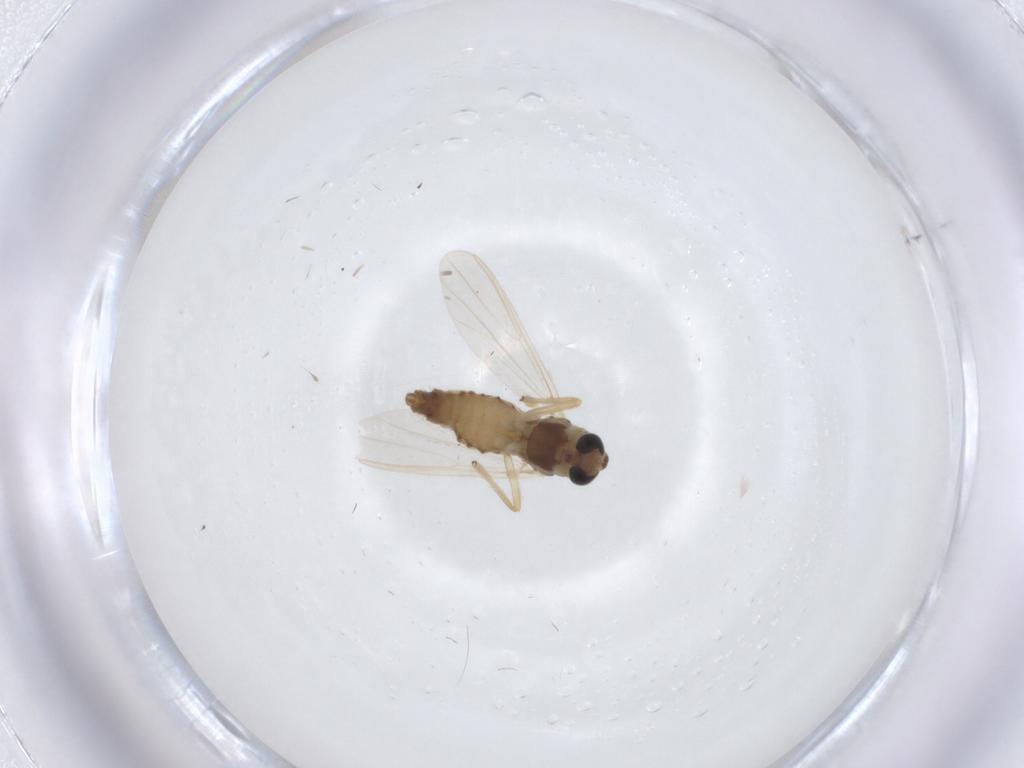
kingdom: Animalia
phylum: Arthropoda
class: Insecta
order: Diptera
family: Chironomidae
